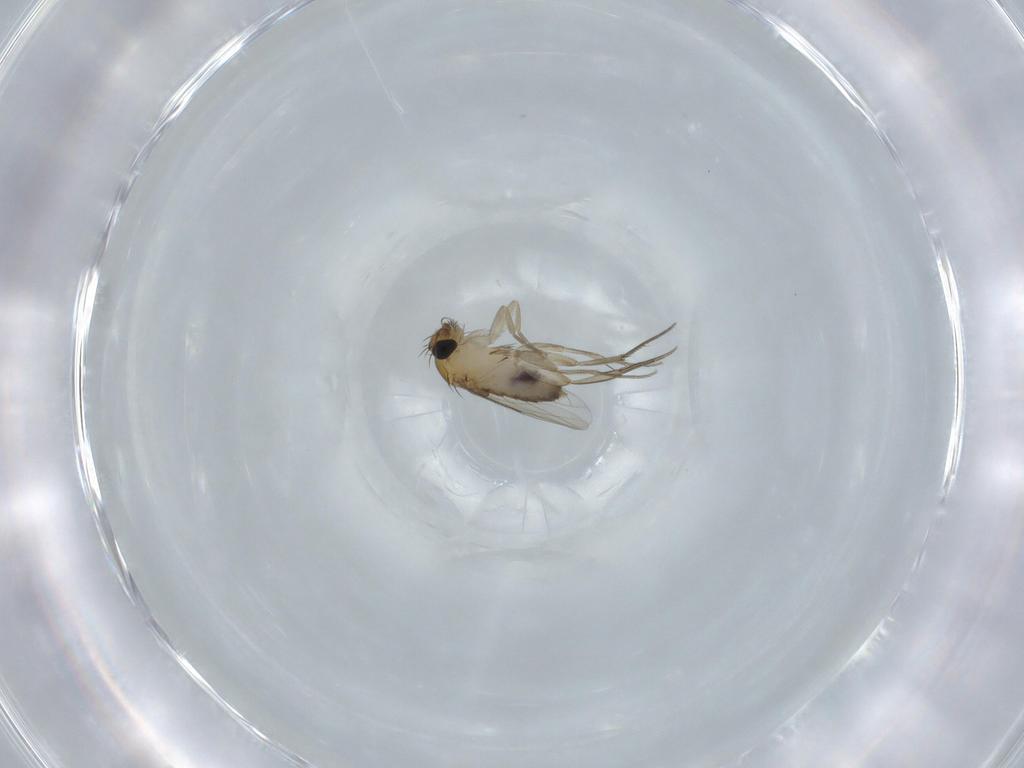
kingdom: Animalia
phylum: Arthropoda
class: Insecta
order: Diptera
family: Phoridae
